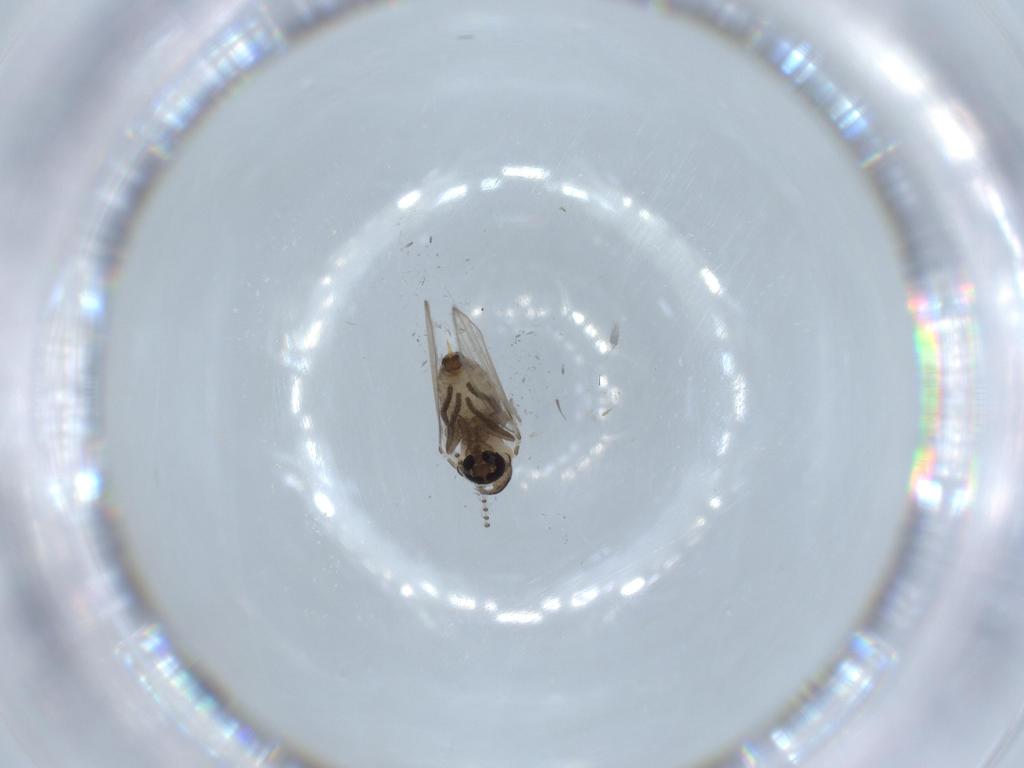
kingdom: Animalia
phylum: Arthropoda
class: Insecta
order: Diptera
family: Psychodidae
